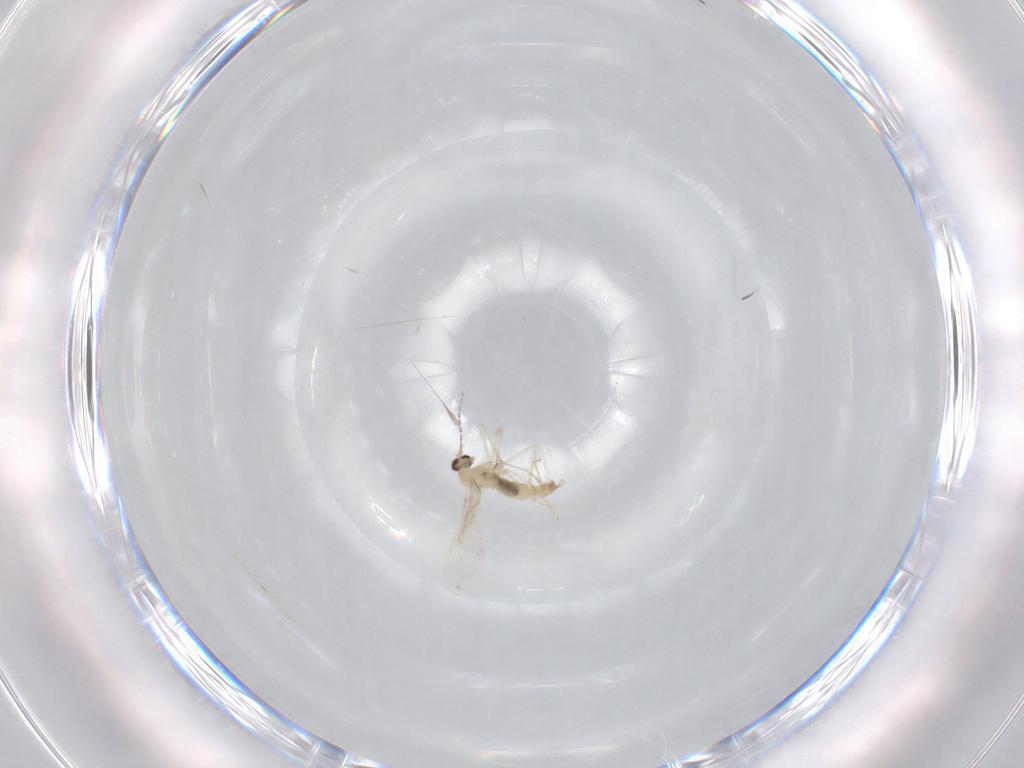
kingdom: Animalia
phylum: Arthropoda
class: Insecta
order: Diptera
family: Cecidomyiidae
